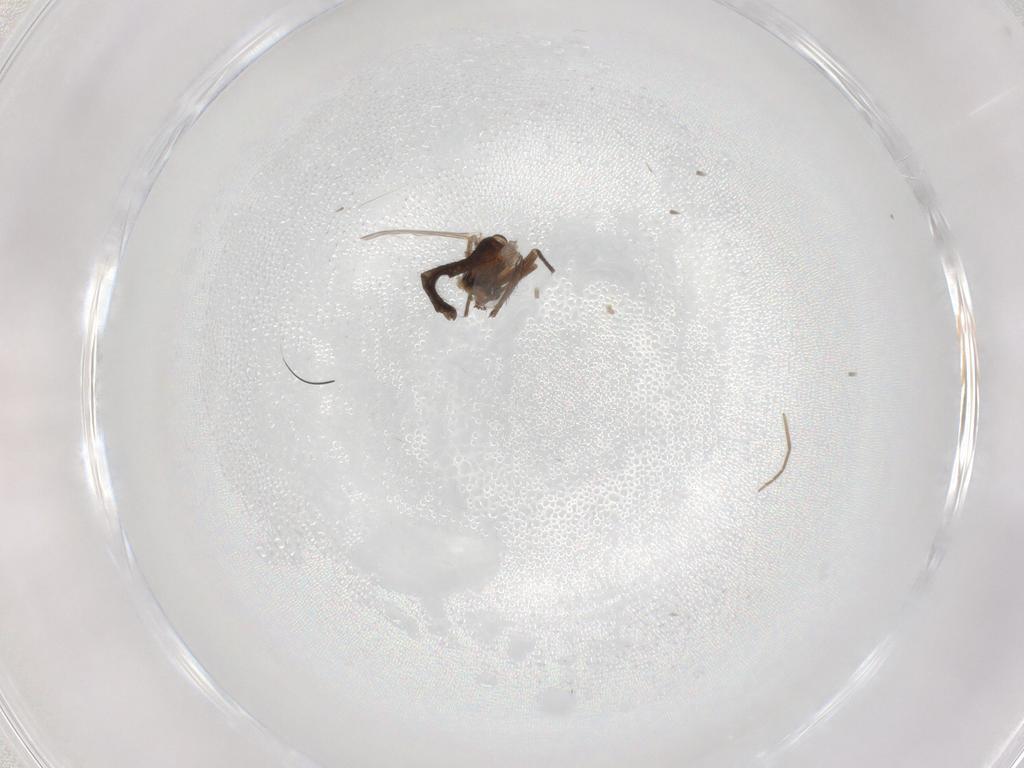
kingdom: Animalia
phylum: Arthropoda
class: Insecta
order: Diptera
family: Chironomidae
